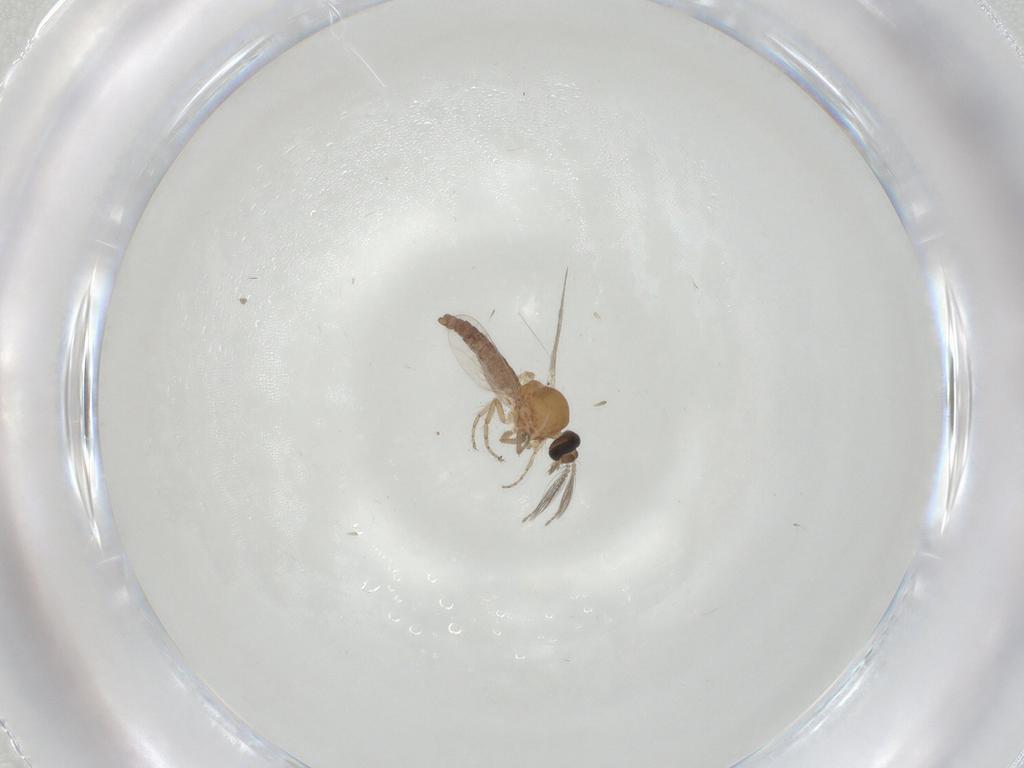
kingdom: Animalia
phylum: Arthropoda
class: Insecta
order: Diptera
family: Ceratopogonidae
